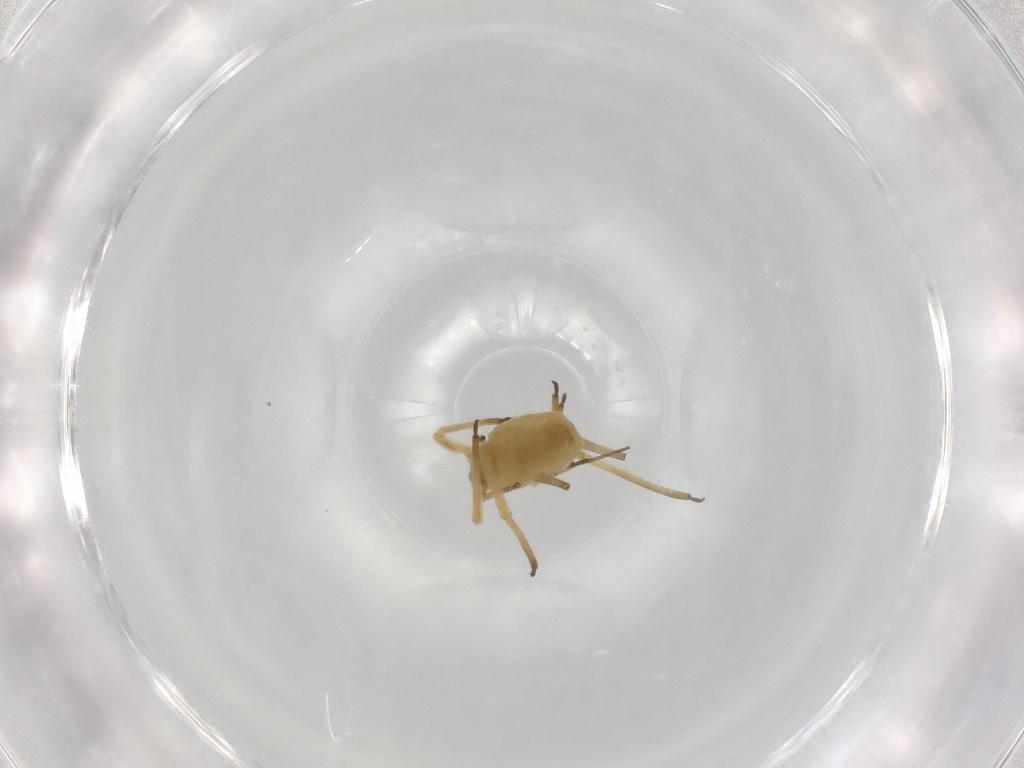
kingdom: Animalia
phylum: Arthropoda
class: Insecta
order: Hemiptera
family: Aphididae
